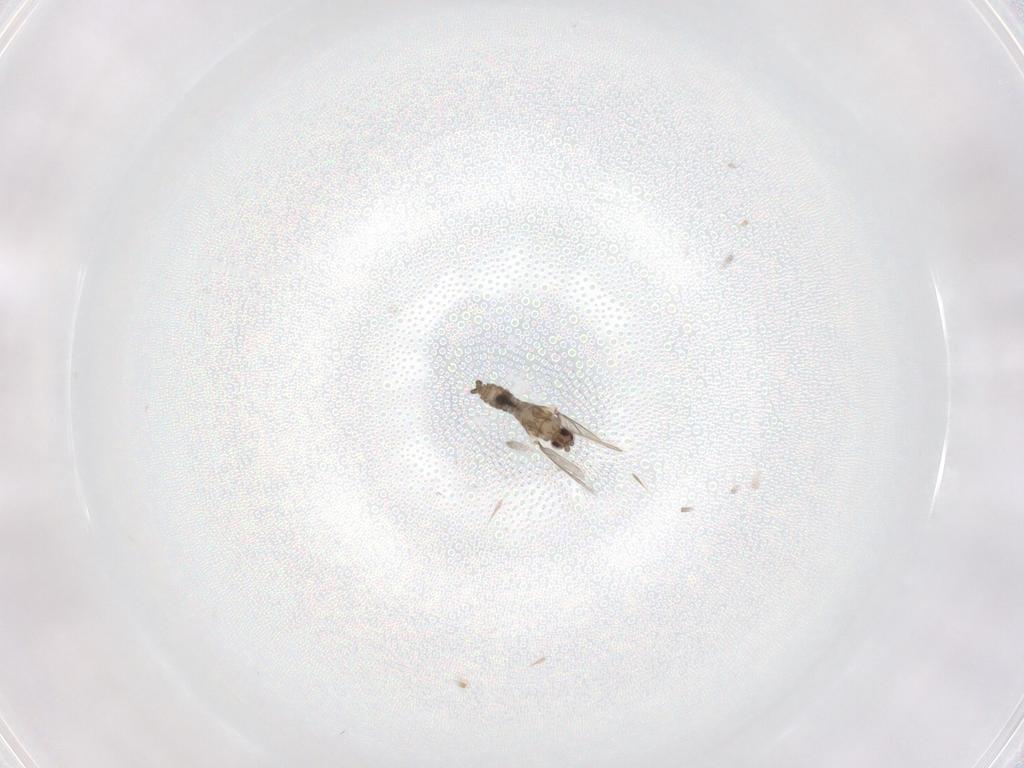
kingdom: Animalia
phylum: Arthropoda
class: Insecta
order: Diptera
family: Cecidomyiidae
